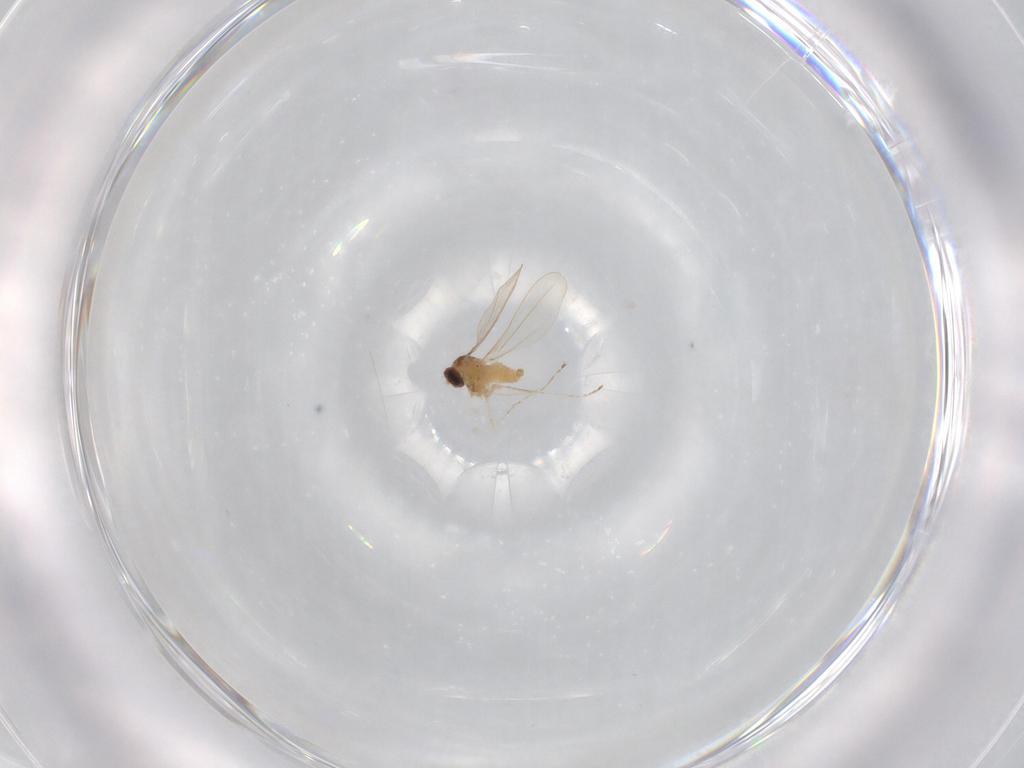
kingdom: Animalia
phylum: Arthropoda
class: Insecta
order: Diptera
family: Cecidomyiidae
